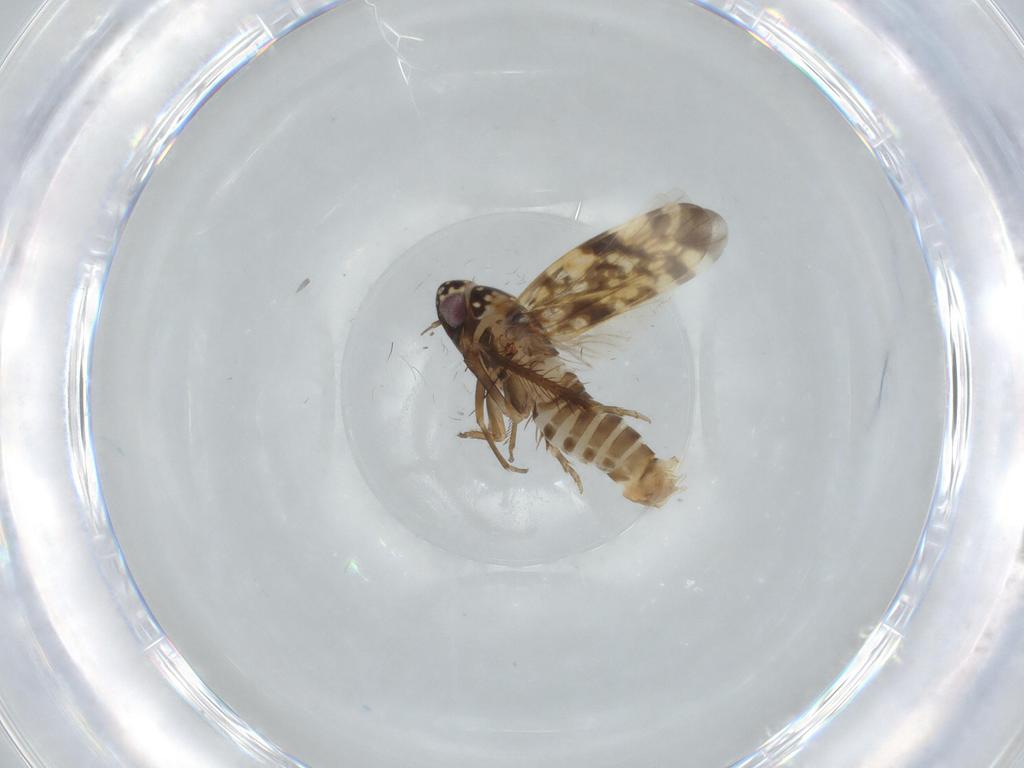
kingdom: Animalia
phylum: Arthropoda
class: Insecta
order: Hemiptera
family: Cicadellidae
